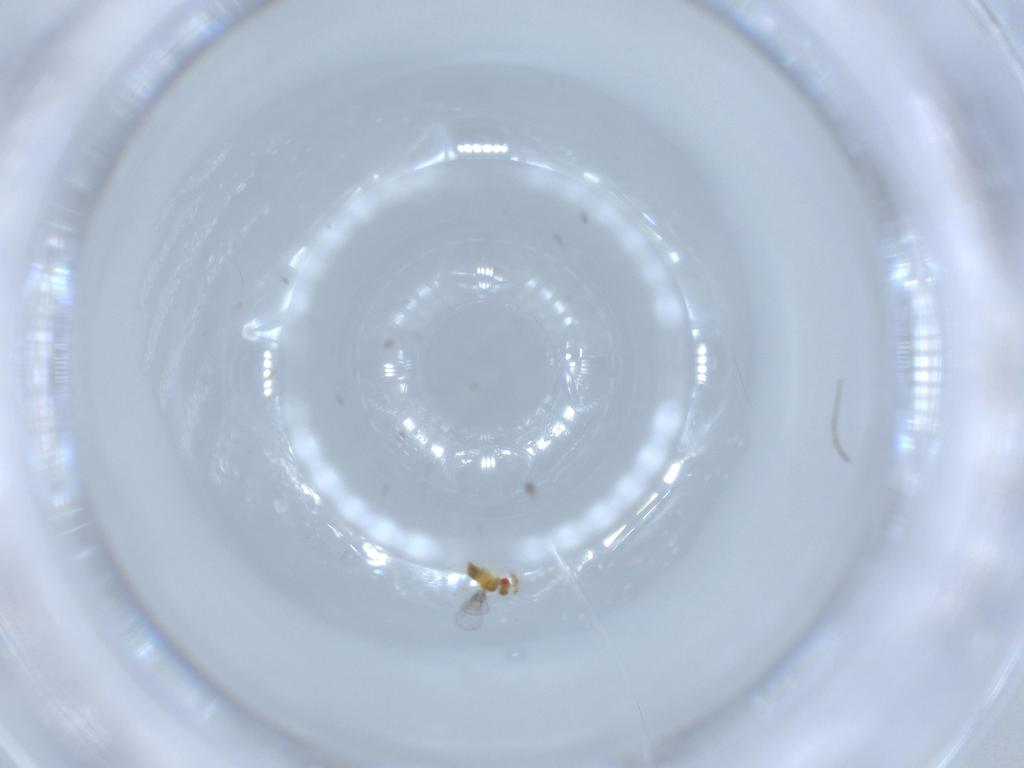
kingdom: Animalia
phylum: Arthropoda
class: Insecta
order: Hymenoptera
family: Trichogrammatidae
